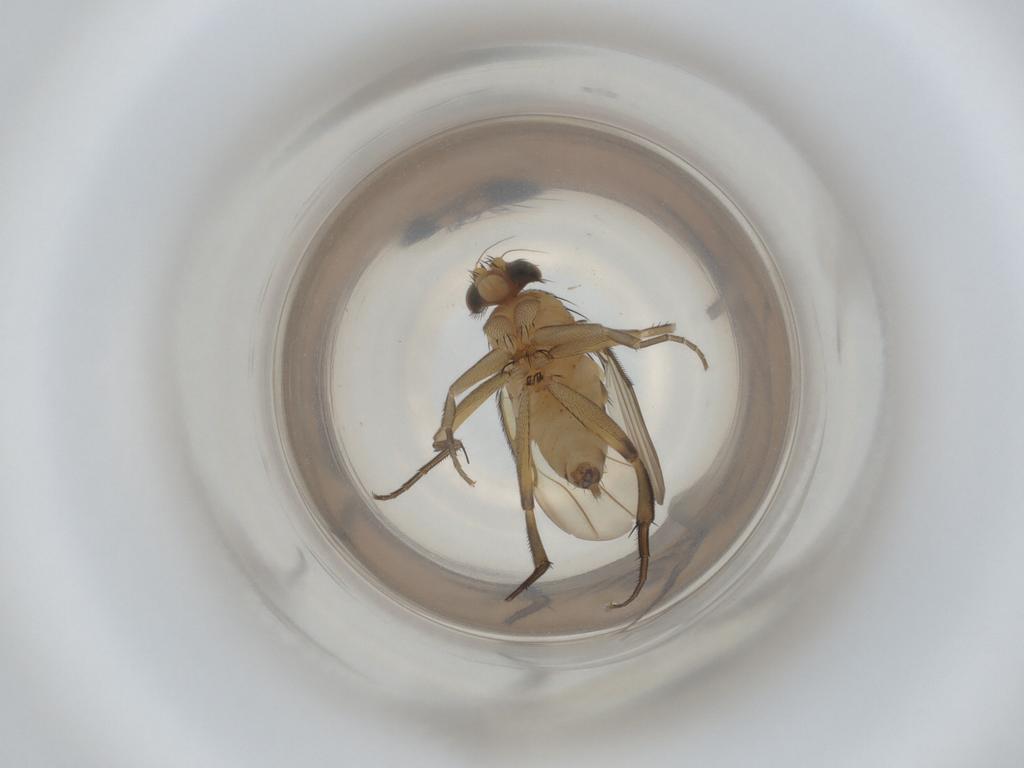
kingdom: Animalia
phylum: Arthropoda
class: Insecta
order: Diptera
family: Phoridae
